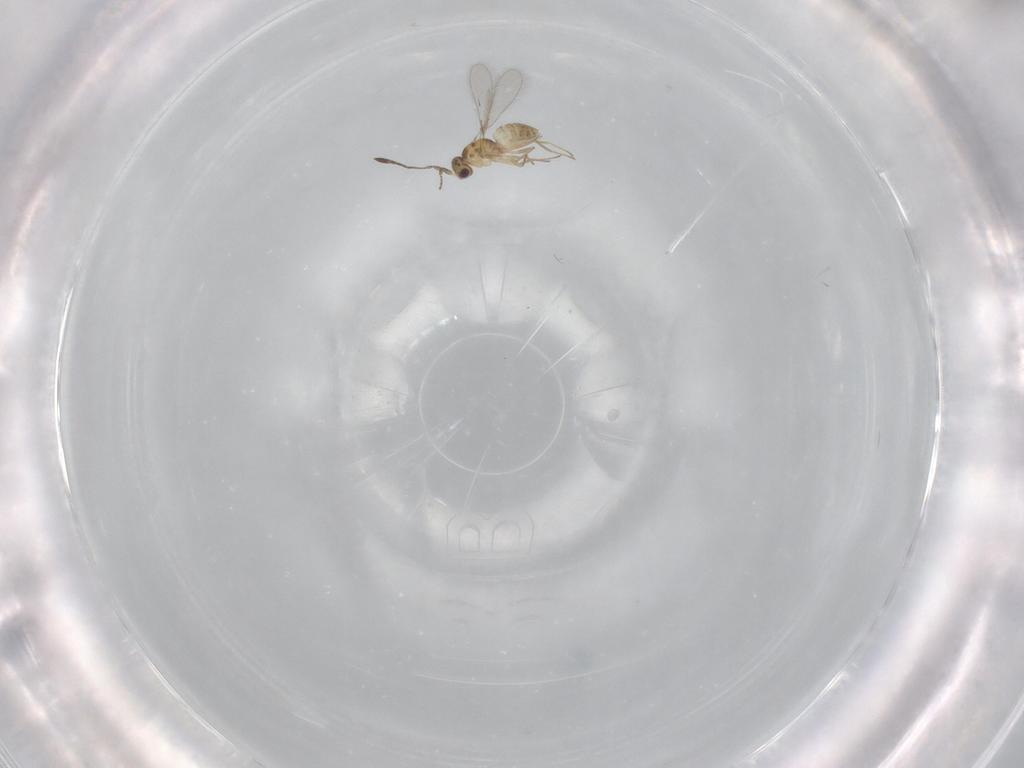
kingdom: Animalia
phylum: Arthropoda
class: Insecta
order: Hymenoptera
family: Mymaridae
